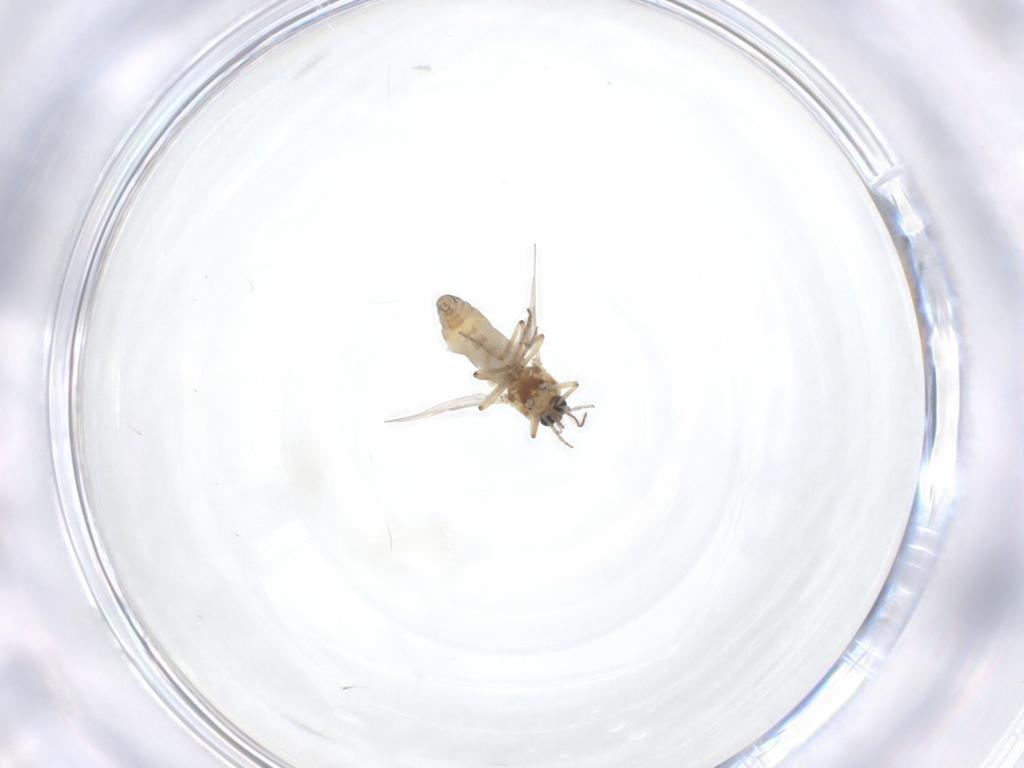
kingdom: Animalia
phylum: Arthropoda
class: Insecta
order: Diptera
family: Ceratopogonidae
